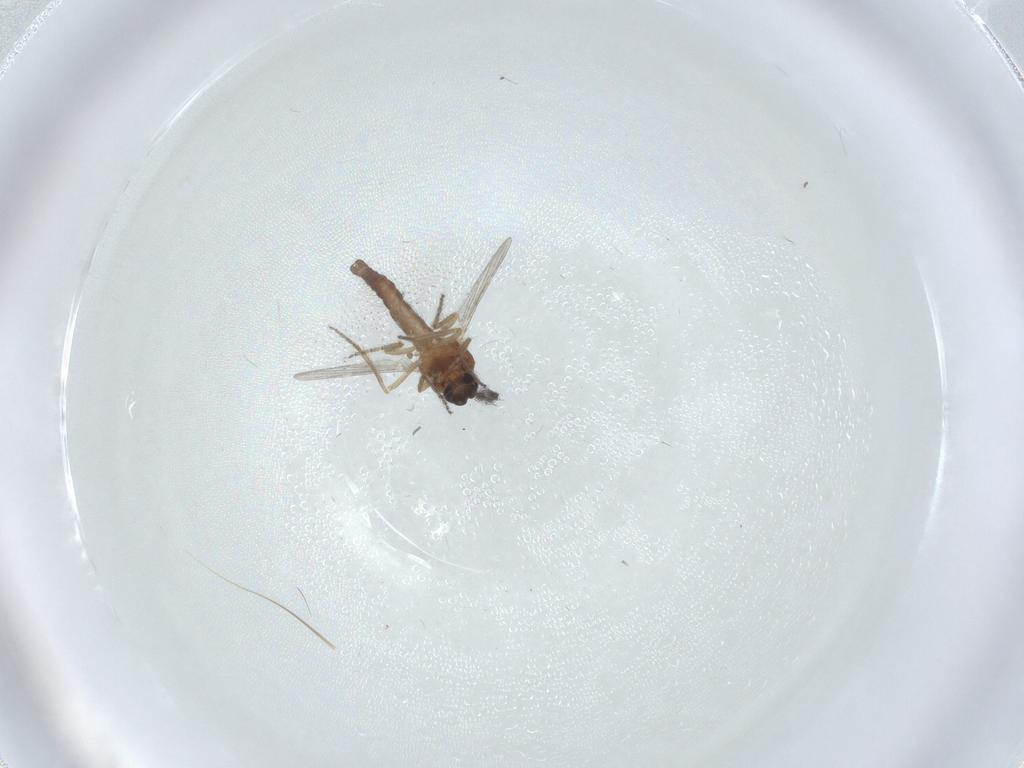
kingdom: Animalia
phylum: Arthropoda
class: Insecta
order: Diptera
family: Ceratopogonidae
